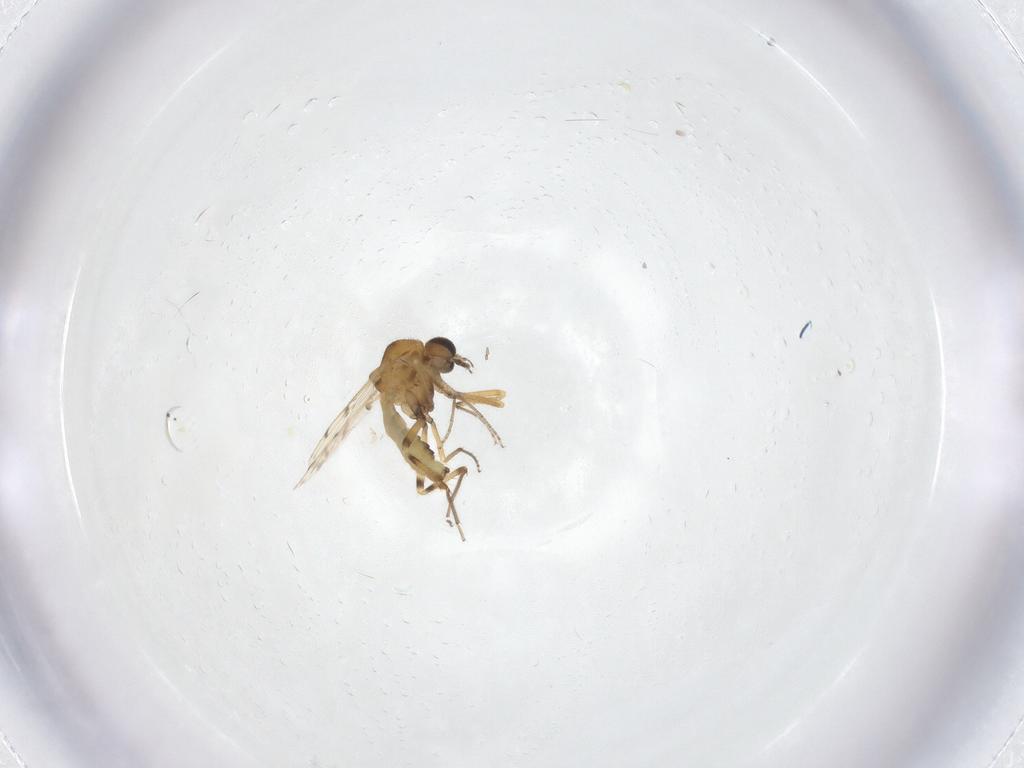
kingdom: Animalia
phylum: Arthropoda
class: Insecta
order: Diptera
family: Ceratopogonidae
